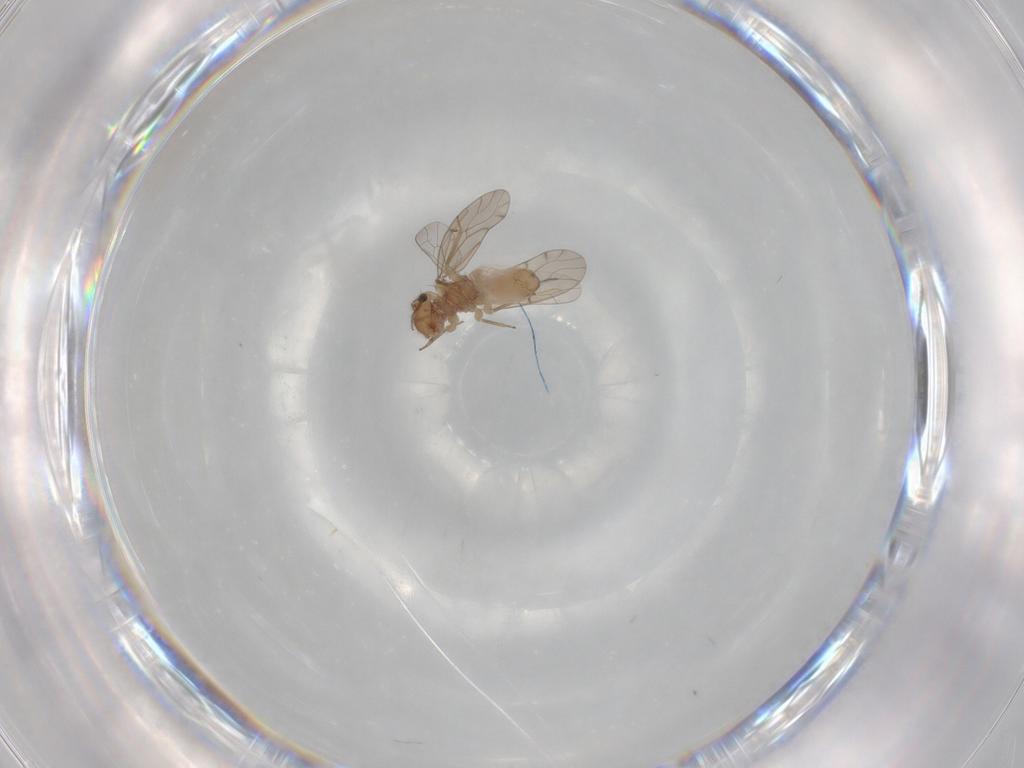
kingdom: Animalia
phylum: Arthropoda
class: Insecta
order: Psocodea
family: Ectopsocidae
